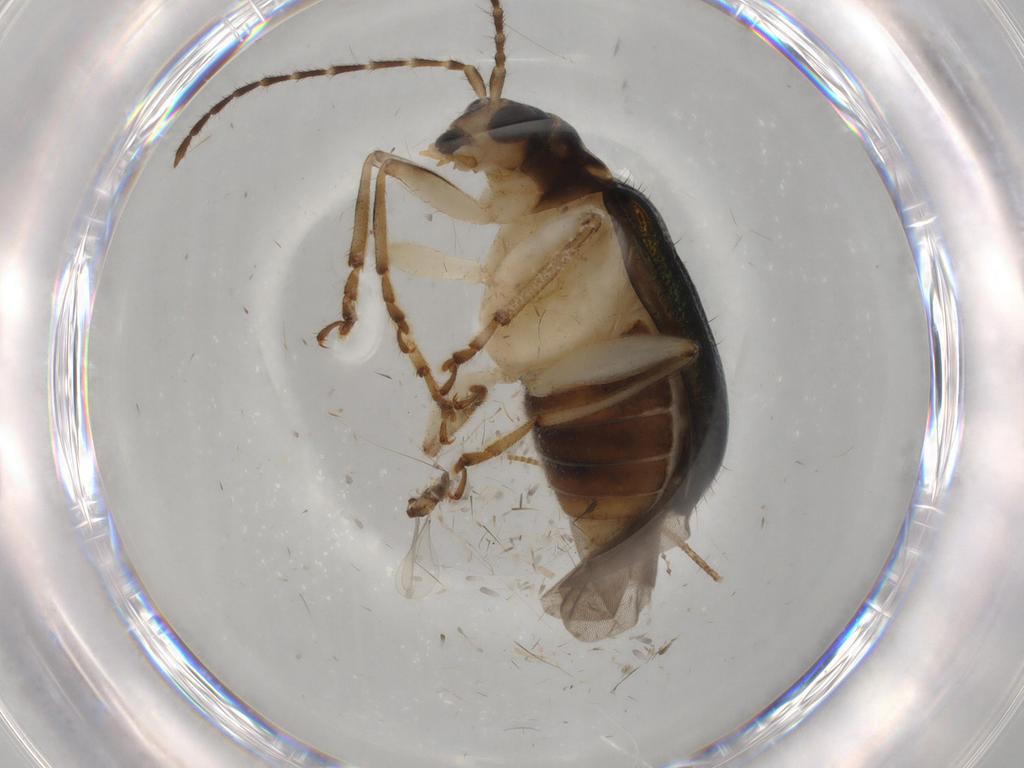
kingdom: Animalia
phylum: Arthropoda
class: Insecta
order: Coleoptera
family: Chrysomelidae
